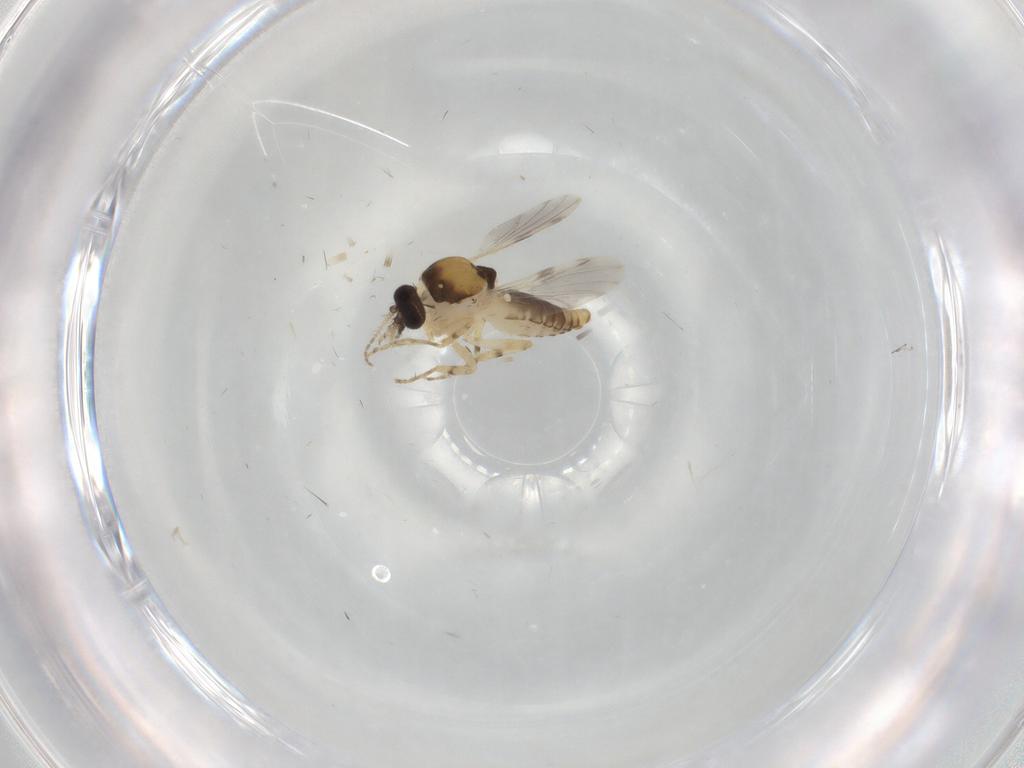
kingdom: Animalia
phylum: Arthropoda
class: Insecta
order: Diptera
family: Ceratopogonidae
